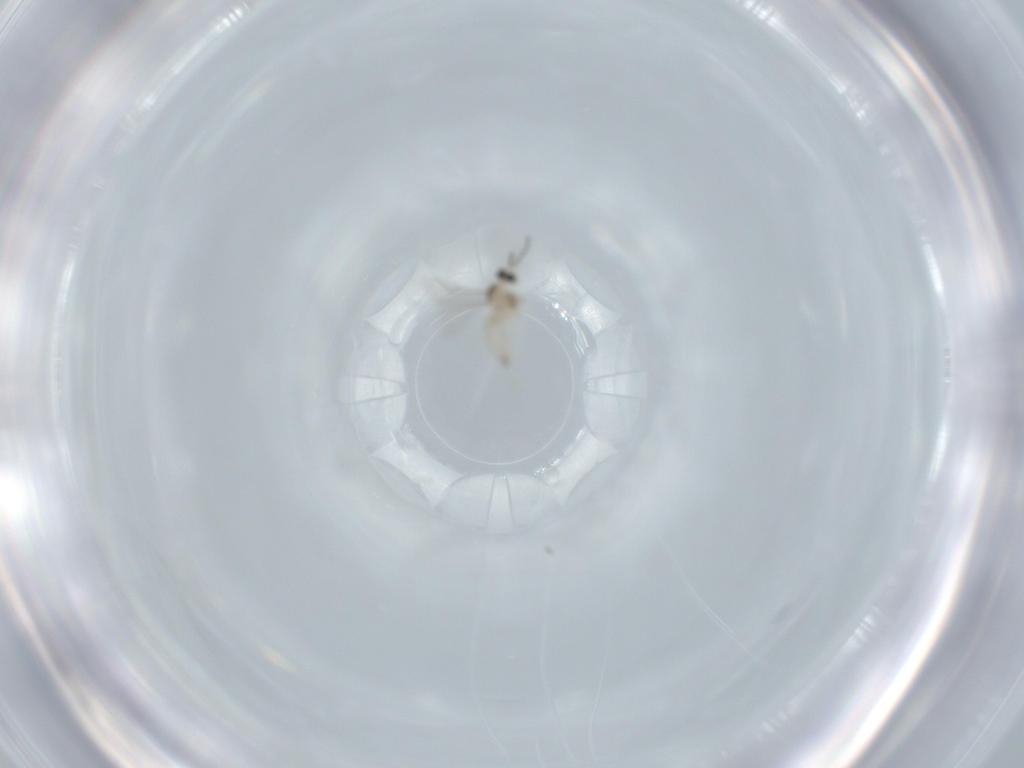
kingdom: Animalia
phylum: Arthropoda
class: Insecta
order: Diptera
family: Cecidomyiidae
